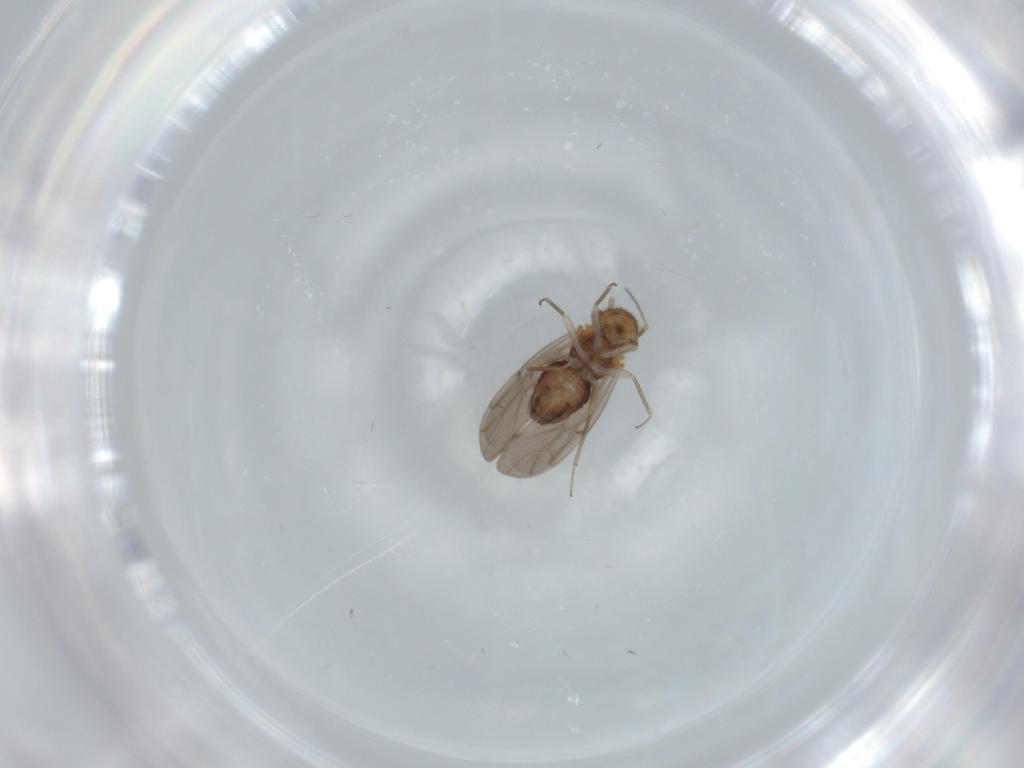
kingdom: Animalia
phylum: Arthropoda
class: Insecta
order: Psocodea
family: Ectopsocidae
